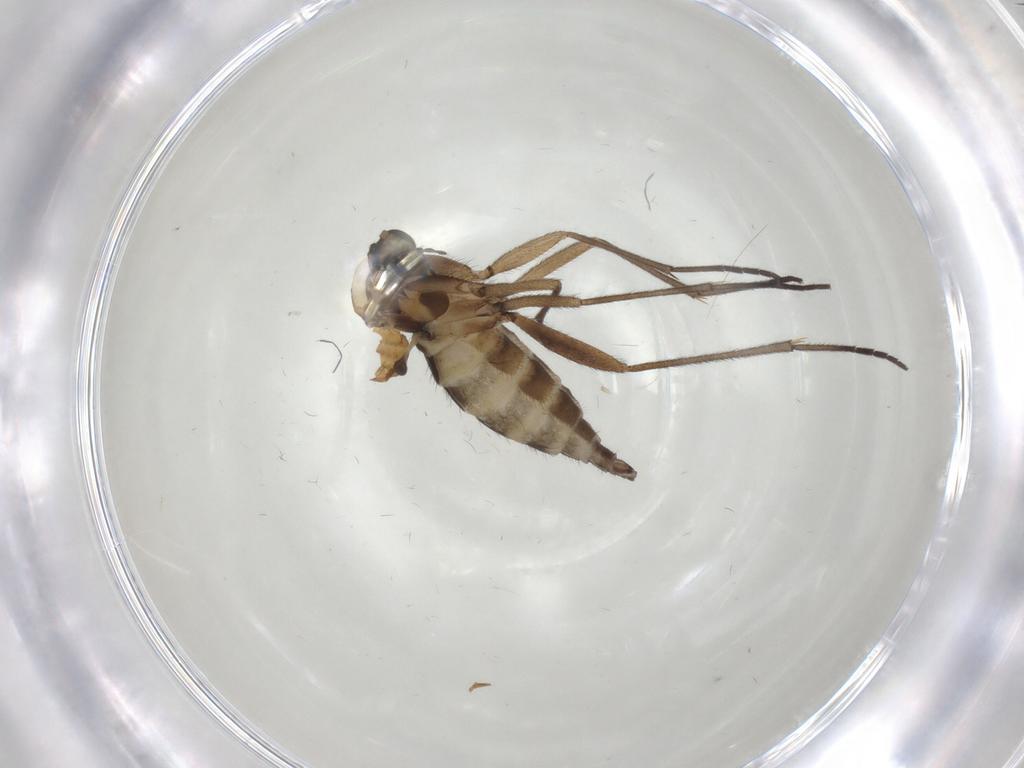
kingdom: Animalia
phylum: Arthropoda
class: Insecta
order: Diptera
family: Sciaridae
